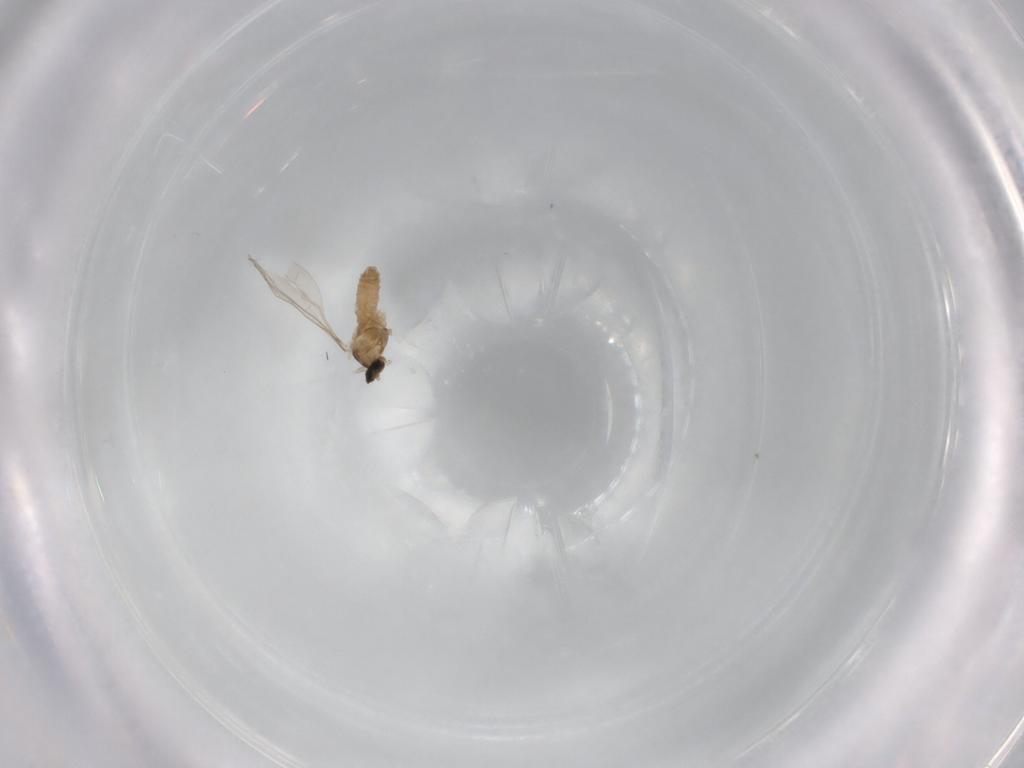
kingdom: Animalia
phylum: Arthropoda
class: Insecta
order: Diptera
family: Cecidomyiidae
